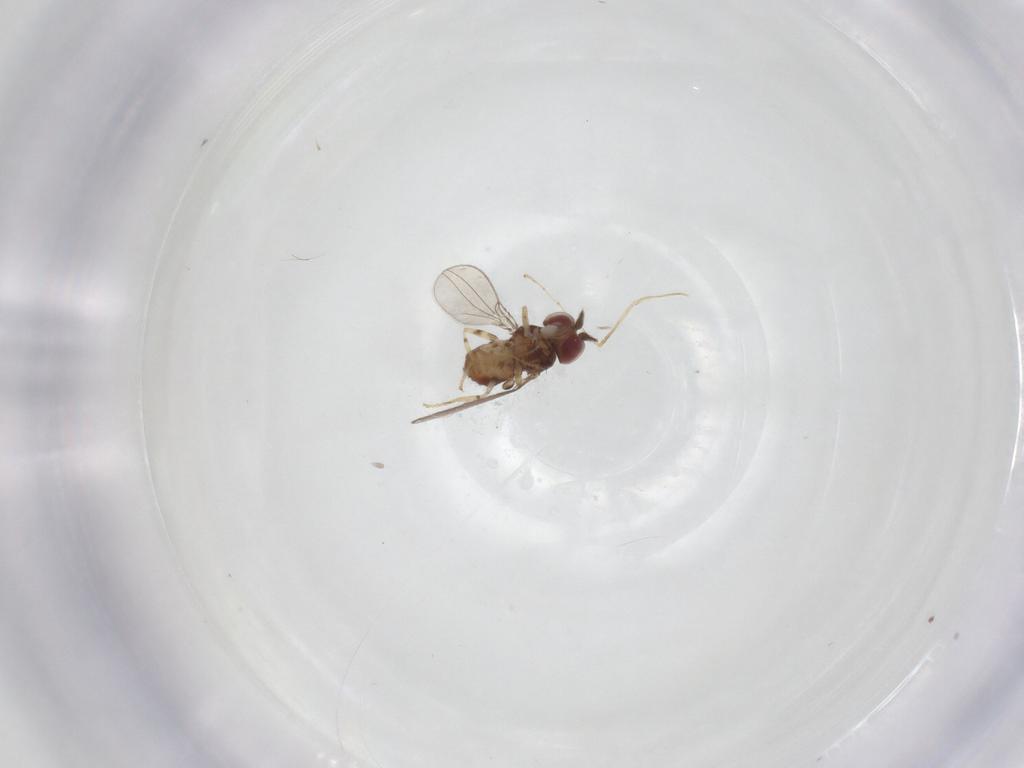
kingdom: Animalia
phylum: Arthropoda
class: Insecta
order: Diptera
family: Asteiidae
